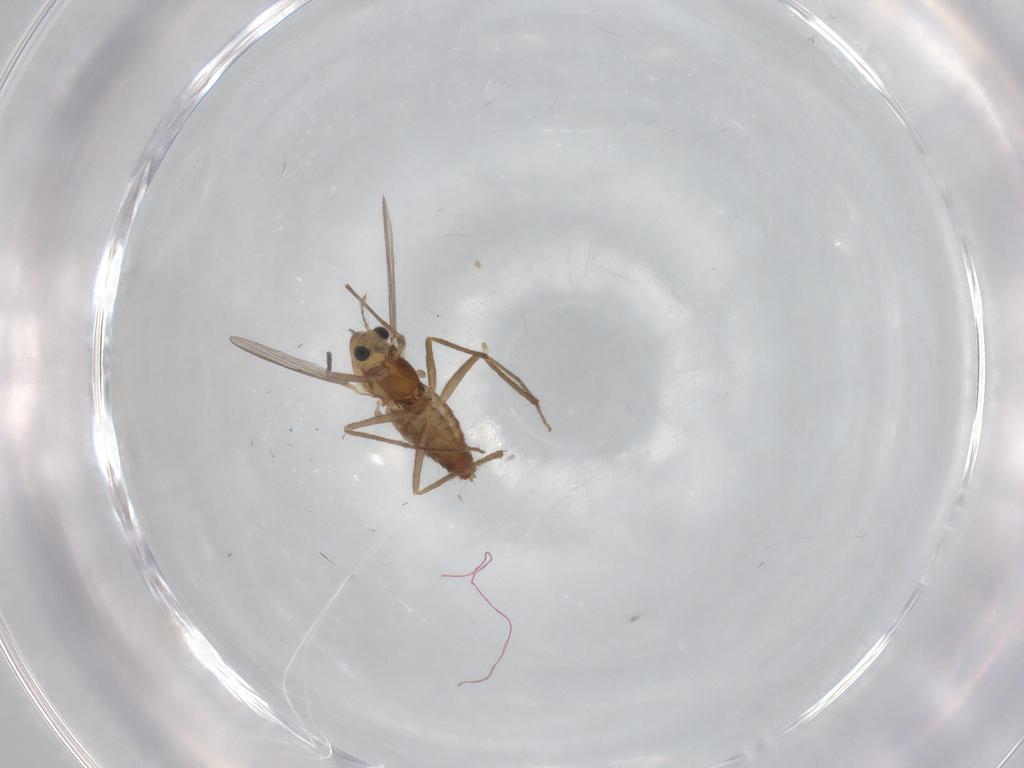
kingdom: Animalia
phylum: Arthropoda
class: Insecta
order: Diptera
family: Chironomidae
